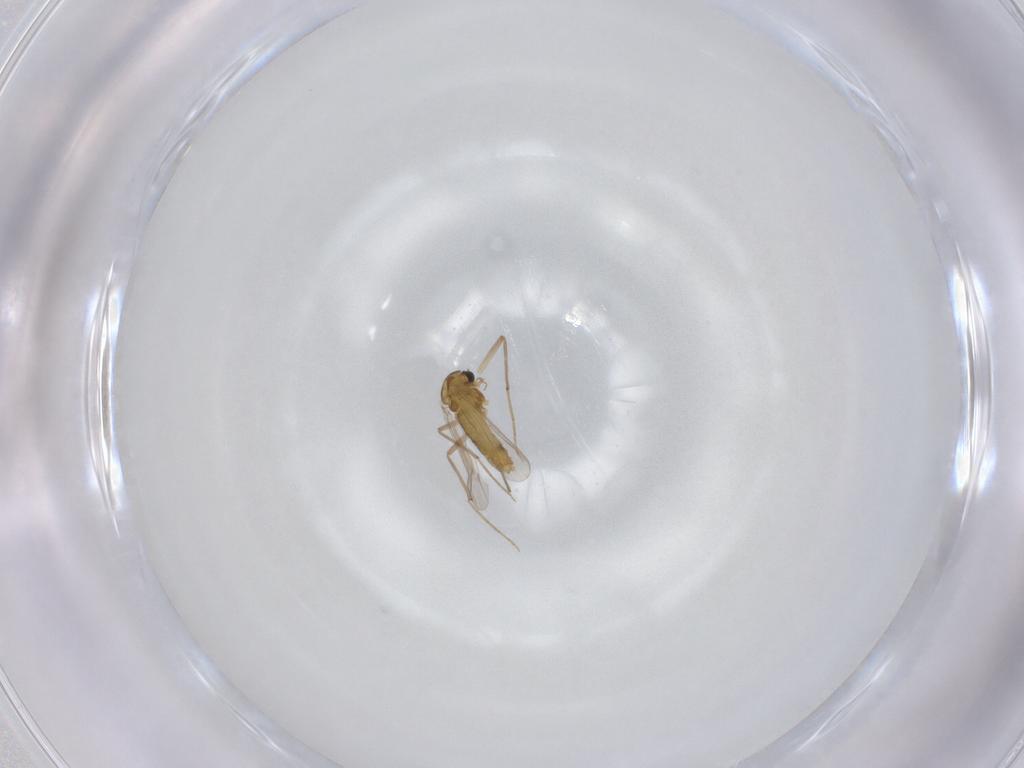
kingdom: Animalia
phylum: Arthropoda
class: Insecta
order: Diptera
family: Chironomidae
